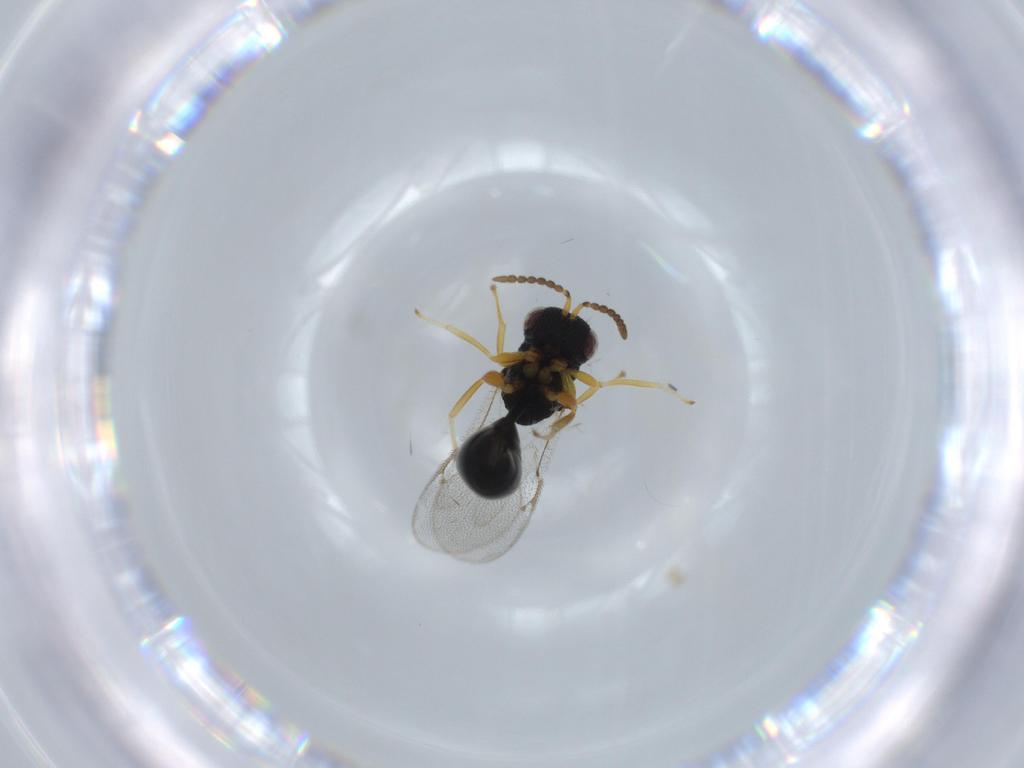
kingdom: Animalia
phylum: Arthropoda
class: Insecta
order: Hymenoptera
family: Eurytomidae
